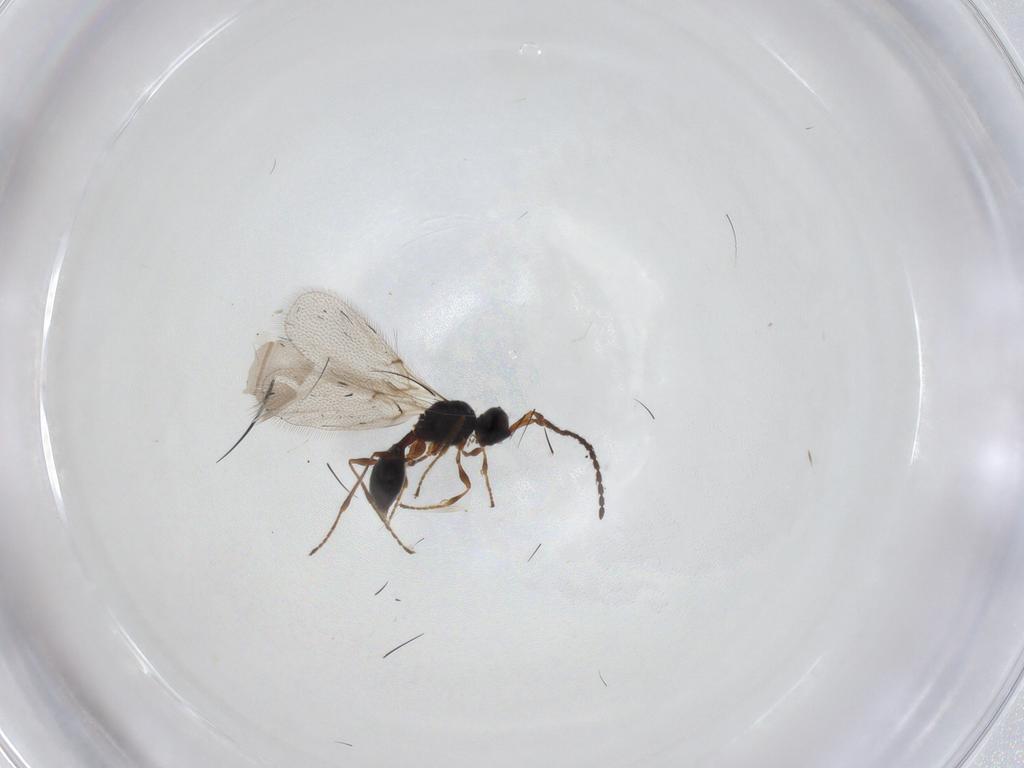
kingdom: Animalia
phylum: Arthropoda
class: Insecta
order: Hymenoptera
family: Diapriidae
